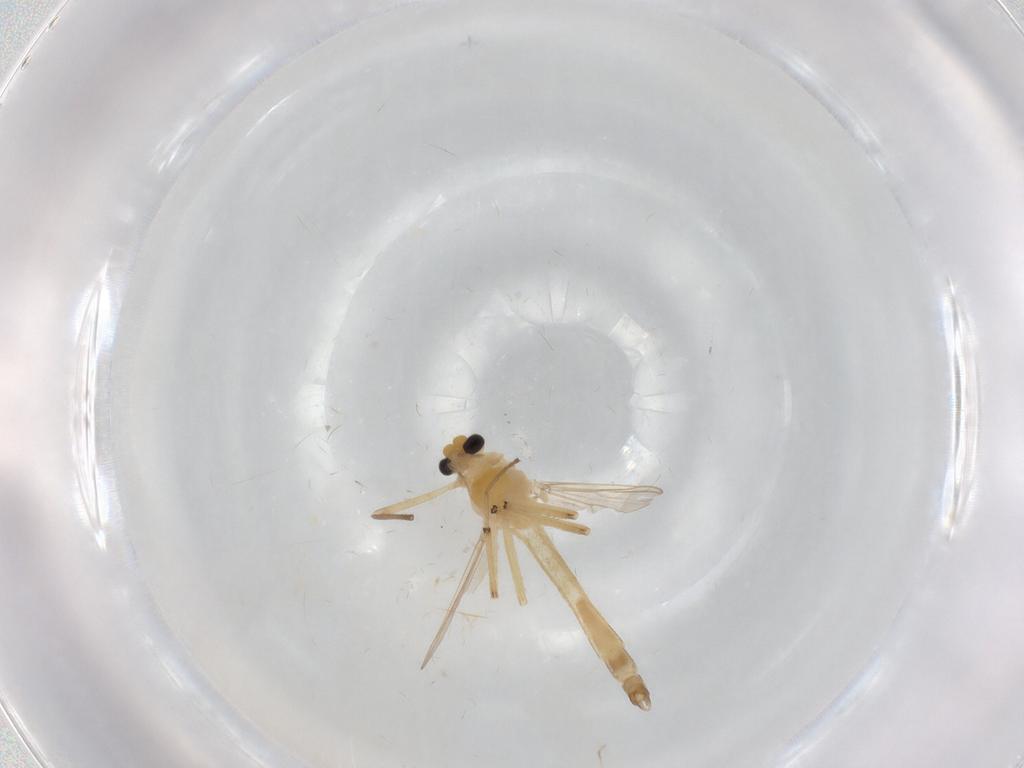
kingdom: Animalia
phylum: Arthropoda
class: Insecta
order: Diptera
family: Chironomidae
